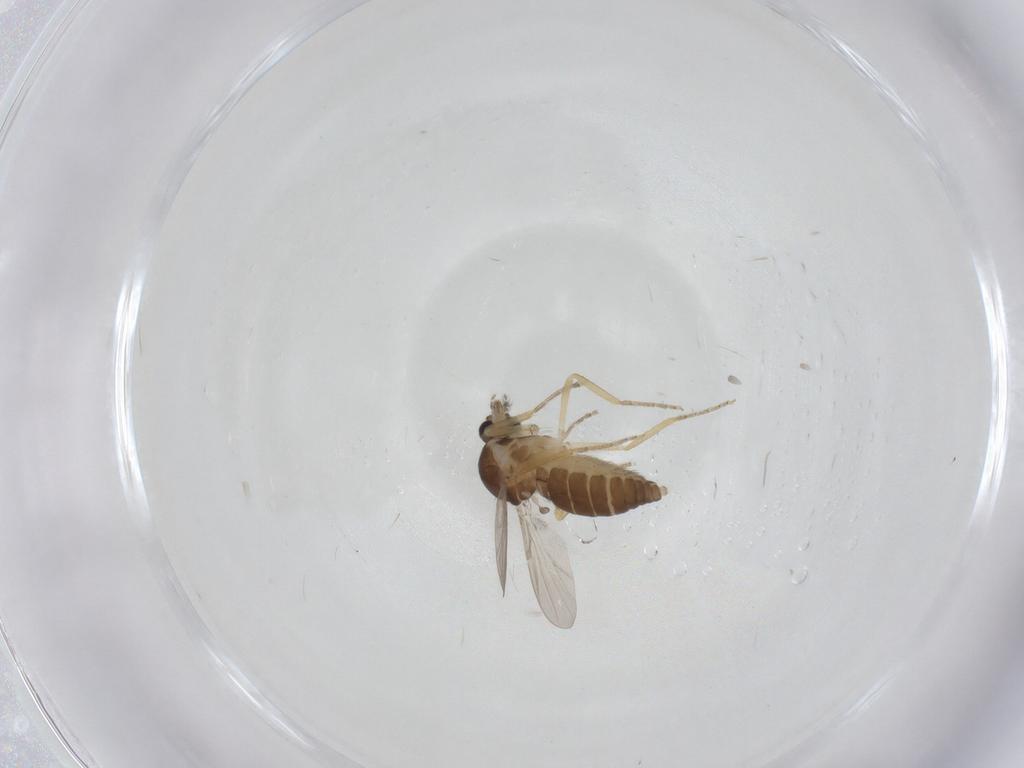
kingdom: Animalia
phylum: Arthropoda
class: Insecta
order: Diptera
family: Ceratopogonidae
